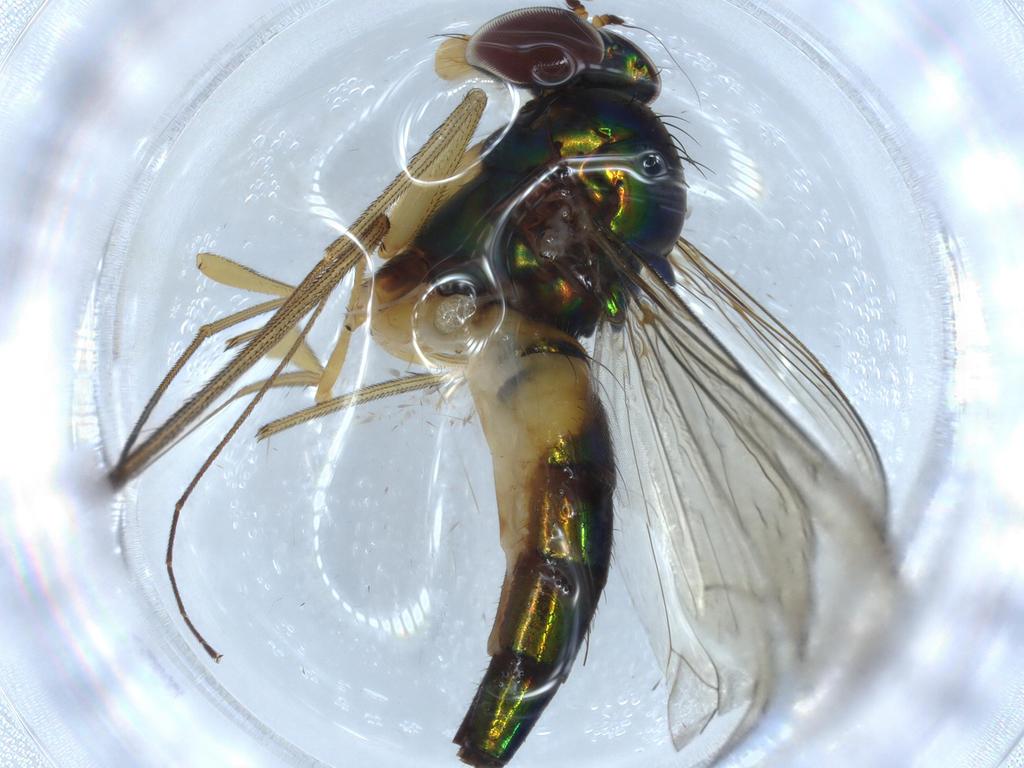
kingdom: Animalia
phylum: Arthropoda
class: Insecta
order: Diptera
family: Dolichopodidae
